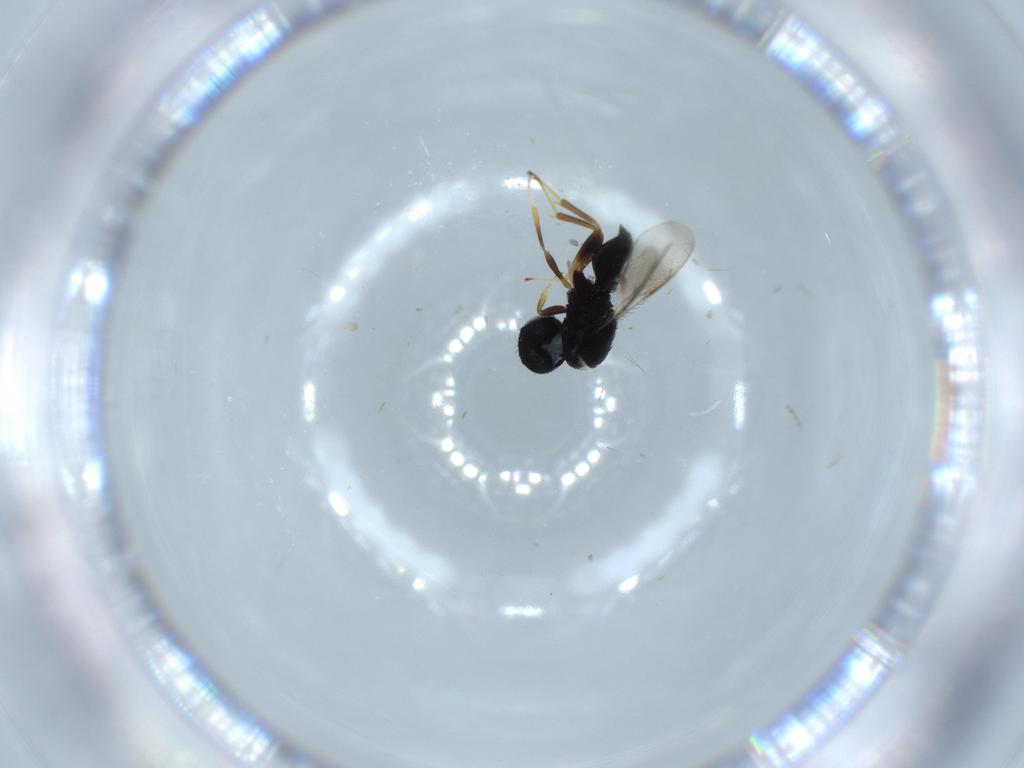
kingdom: Animalia
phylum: Arthropoda
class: Insecta
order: Hymenoptera
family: Pteromalidae
